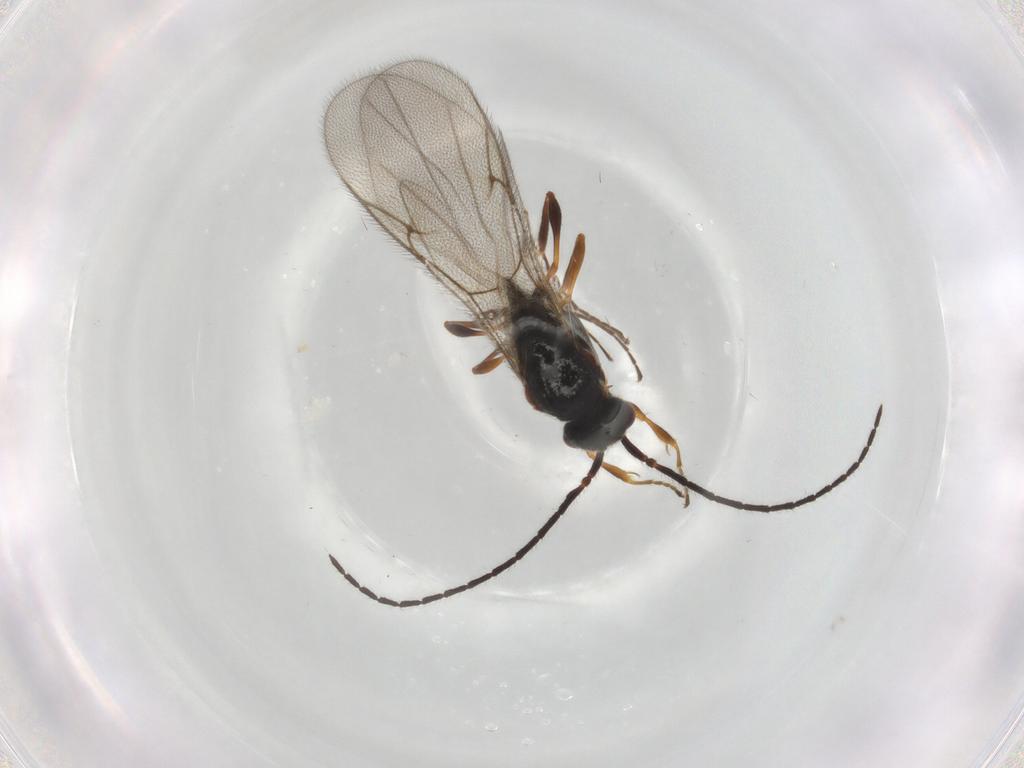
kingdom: Animalia
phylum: Arthropoda
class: Insecta
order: Hymenoptera
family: Diapriidae
